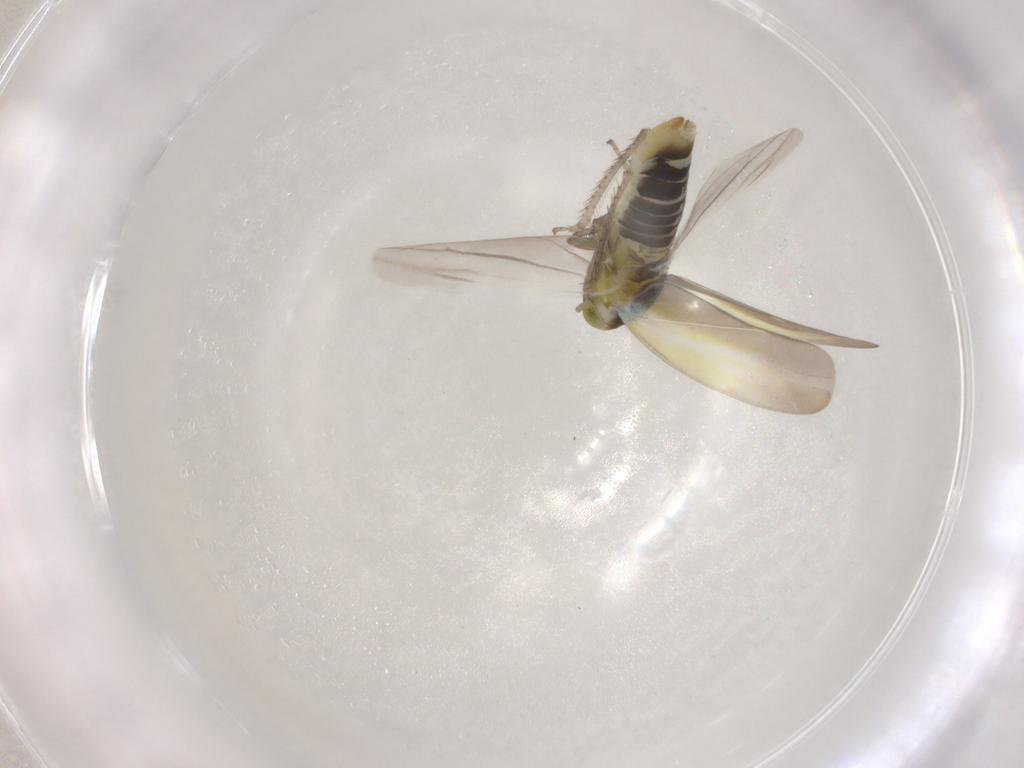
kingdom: Animalia
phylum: Arthropoda
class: Insecta
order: Hemiptera
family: Cicadellidae
